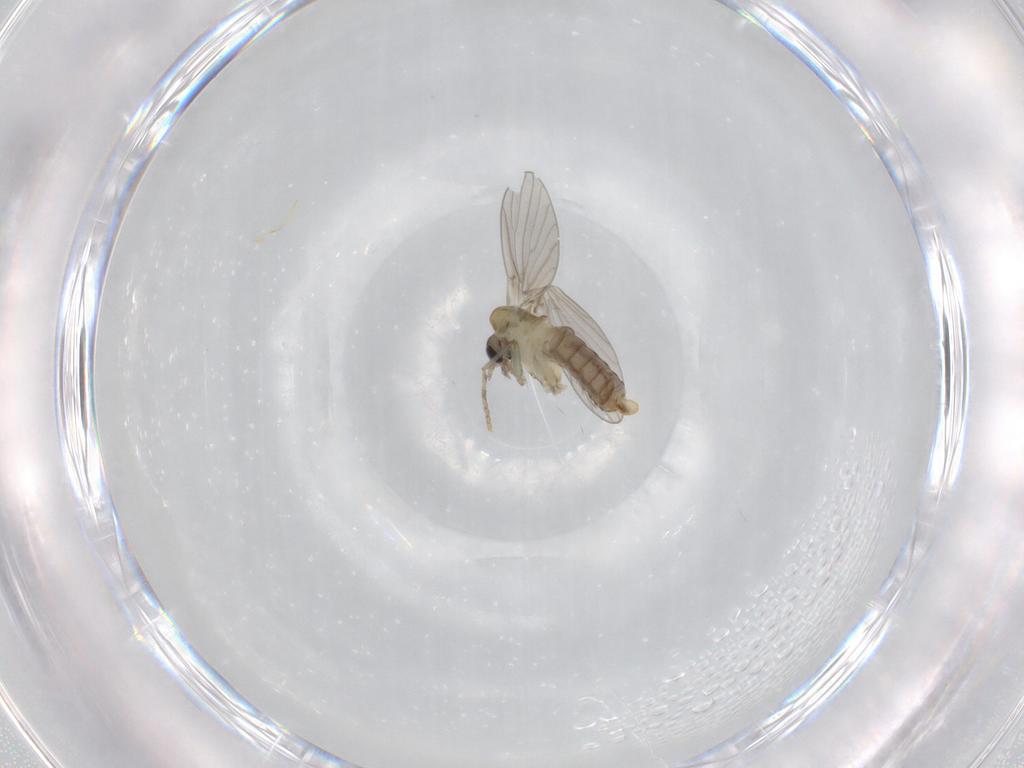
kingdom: Animalia
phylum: Arthropoda
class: Insecta
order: Diptera
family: Psychodidae
